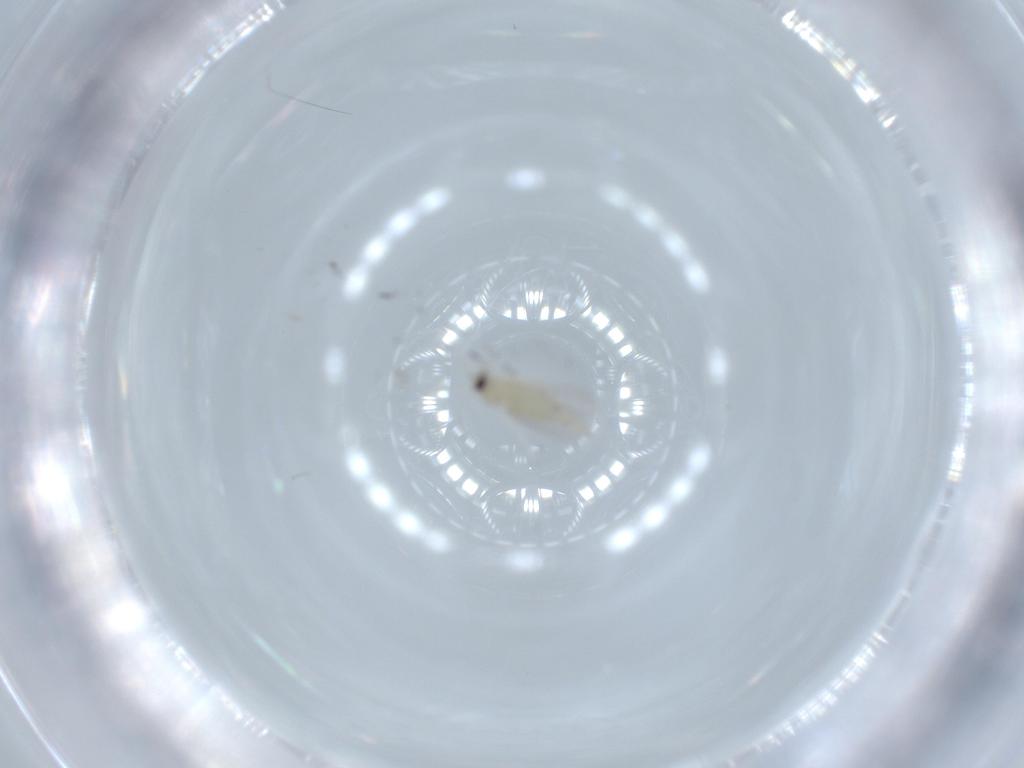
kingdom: Animalia
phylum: Arthropoda
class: Insecta
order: Diptera
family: Cecidomyiidae
